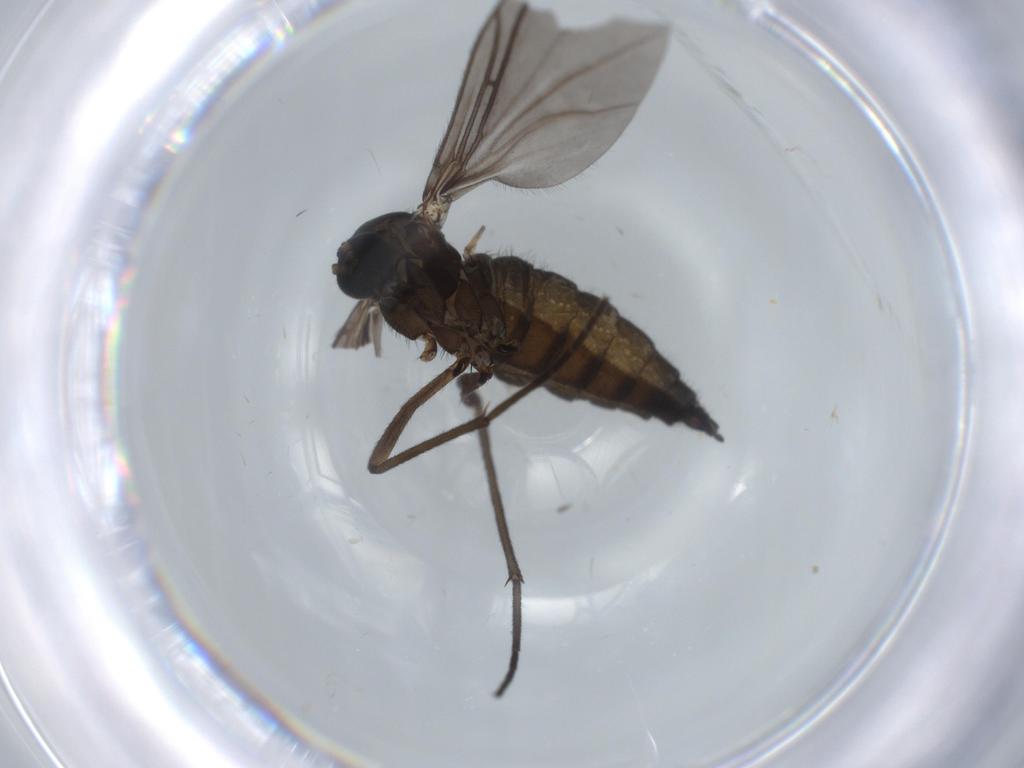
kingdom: Animalia
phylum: Arthropoda
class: Insecta
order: Diptera
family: Sciaridae
